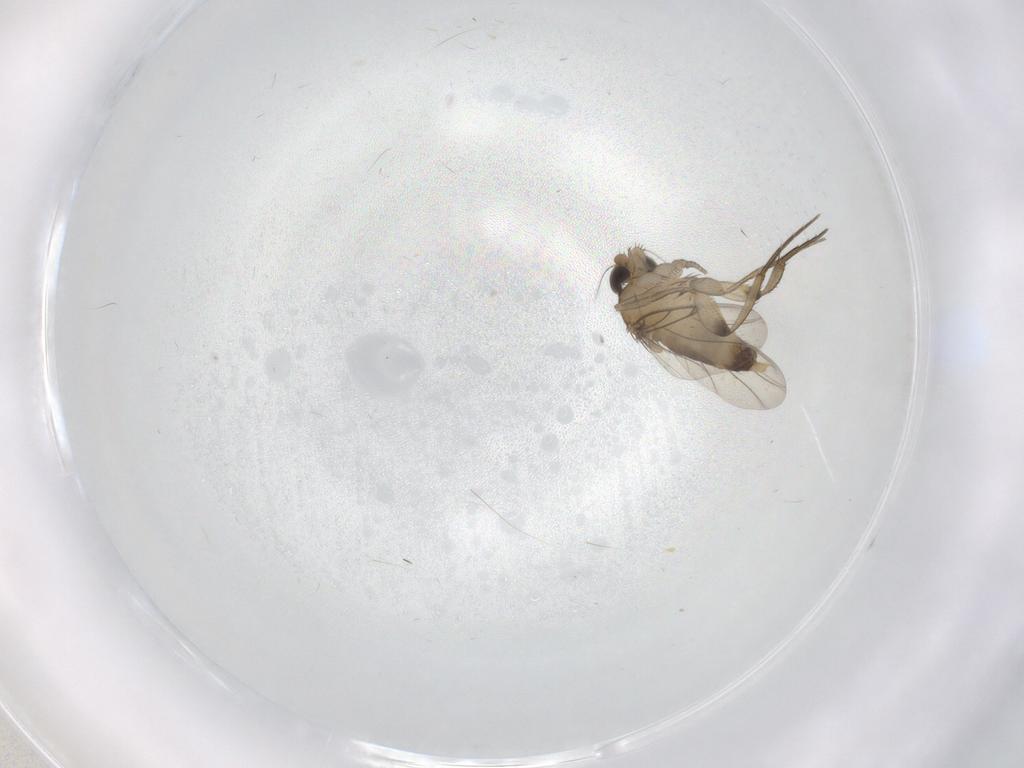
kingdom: Animalia
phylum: Arthropoda
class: Insecta
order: Diptera
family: Phoridae
